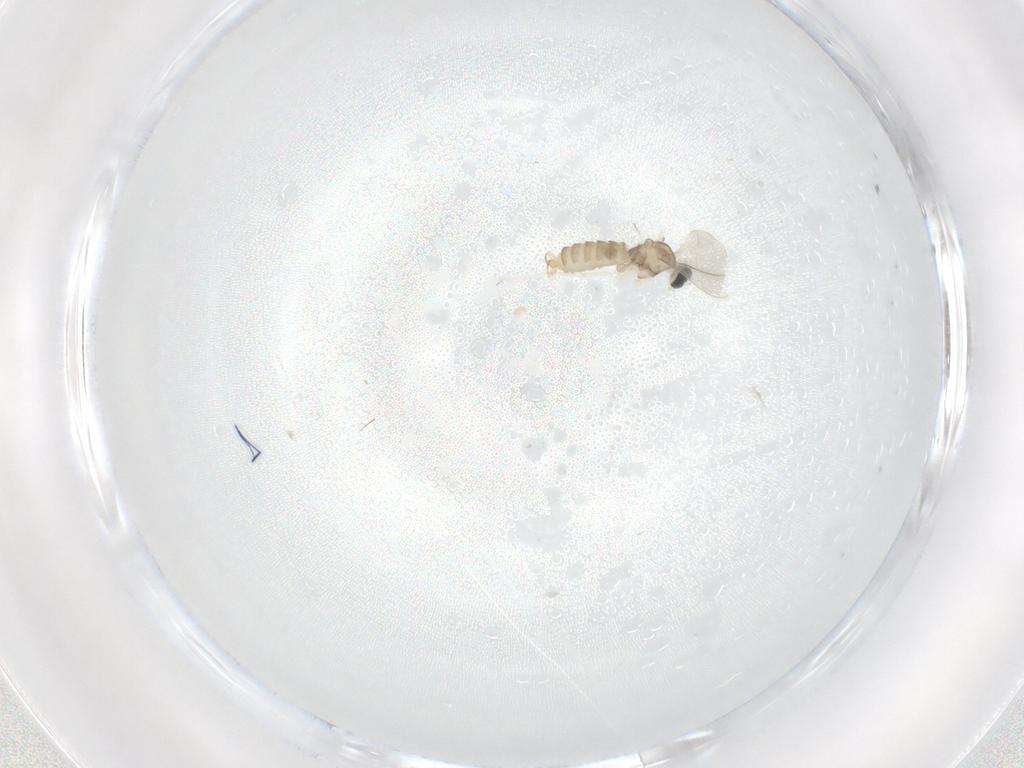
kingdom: Animalia
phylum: Arthropoda
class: Insecta
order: Diptera
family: Cecidomyiidae
